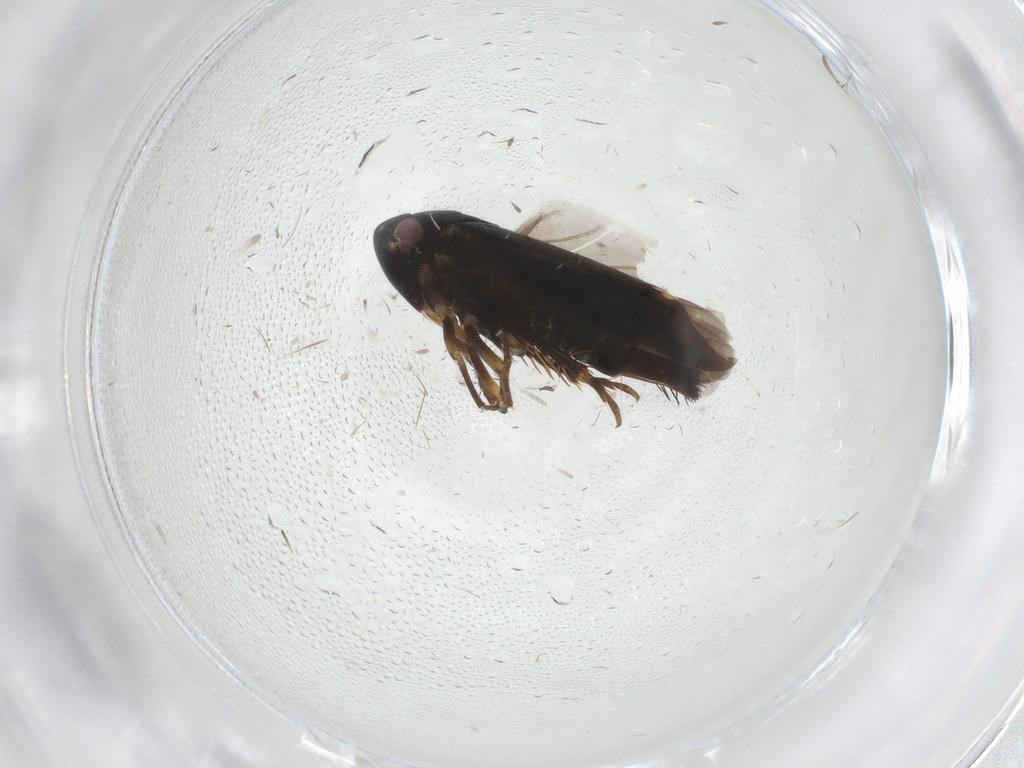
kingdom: Animalia
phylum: Arthropoda
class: Insecta
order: Hemiptera
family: Cicadellidae
